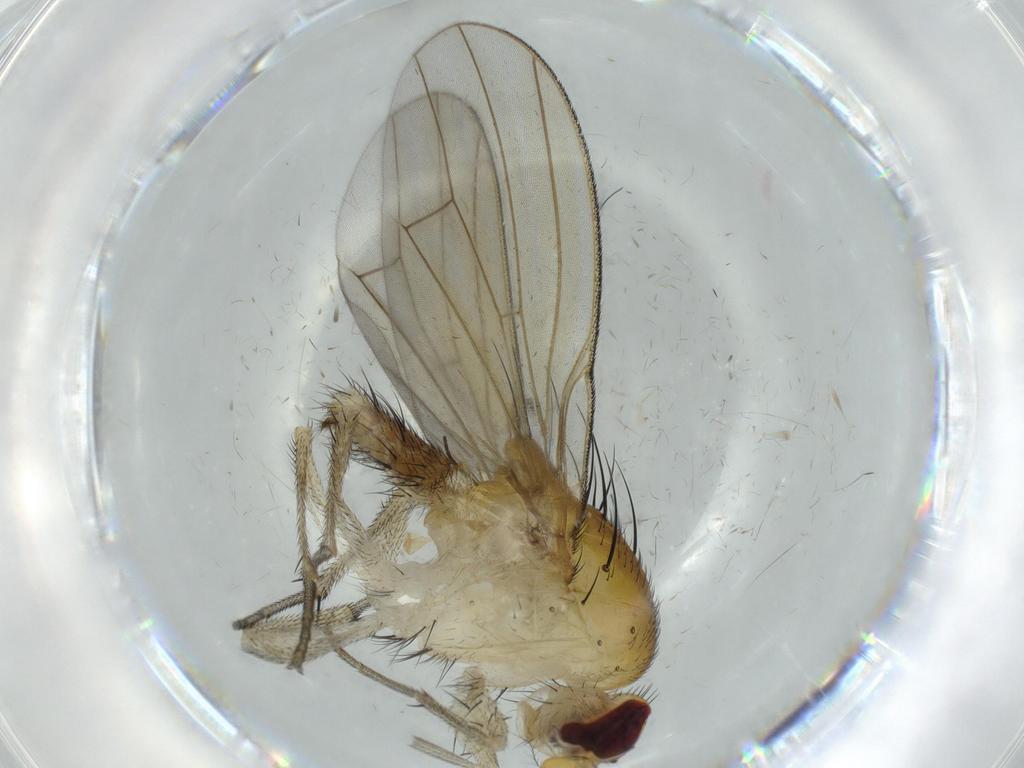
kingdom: Animalia
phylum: Arthropoda
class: Insecta
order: Diptera
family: Phoridae
